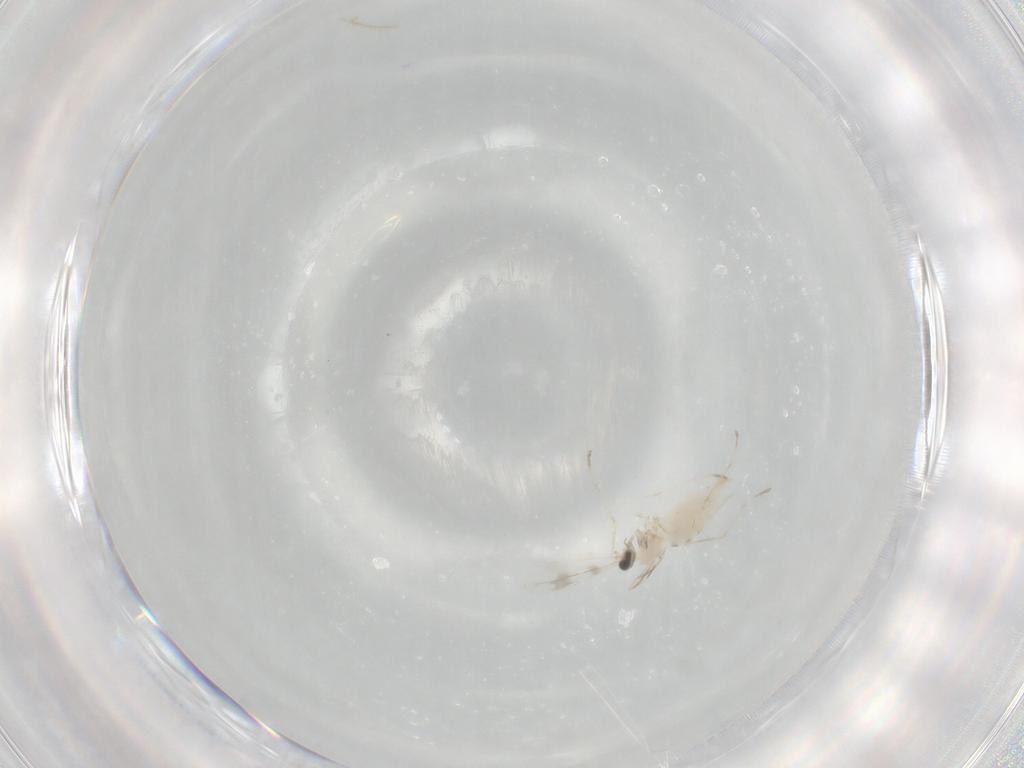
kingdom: Animalia
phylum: Arthropoda
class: Insecta
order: Diptera
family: Cecidomyiidae
